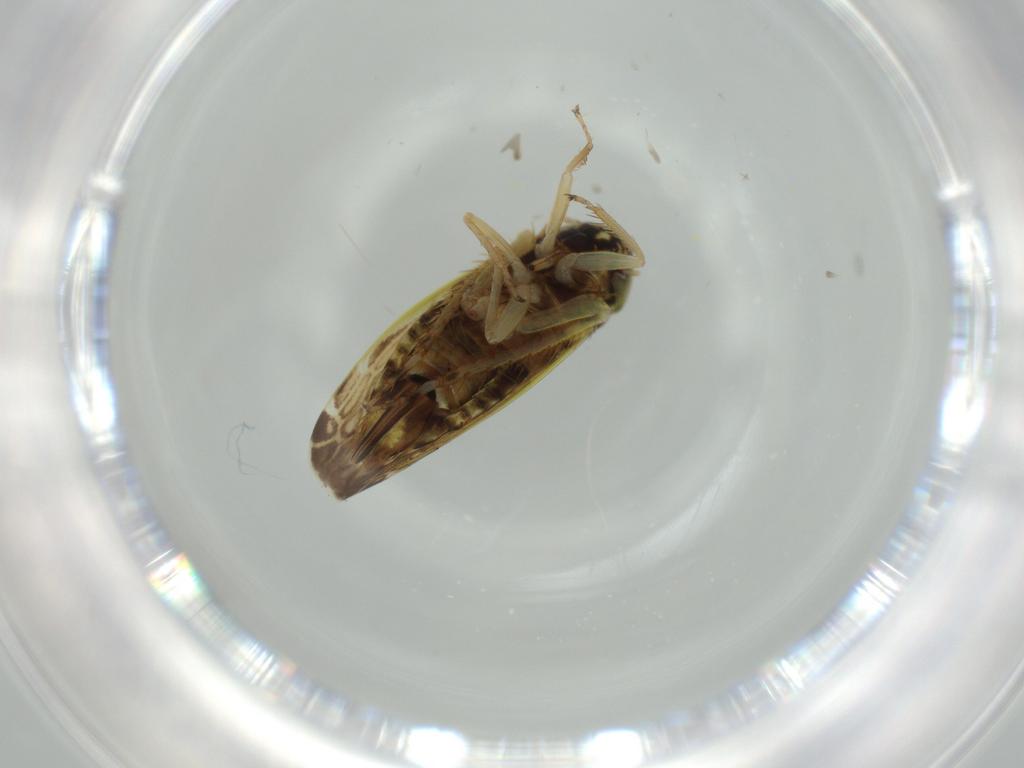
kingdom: Animalia
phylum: Arthropoda
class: Insecta
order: Hemiptera
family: Cicadellidae
